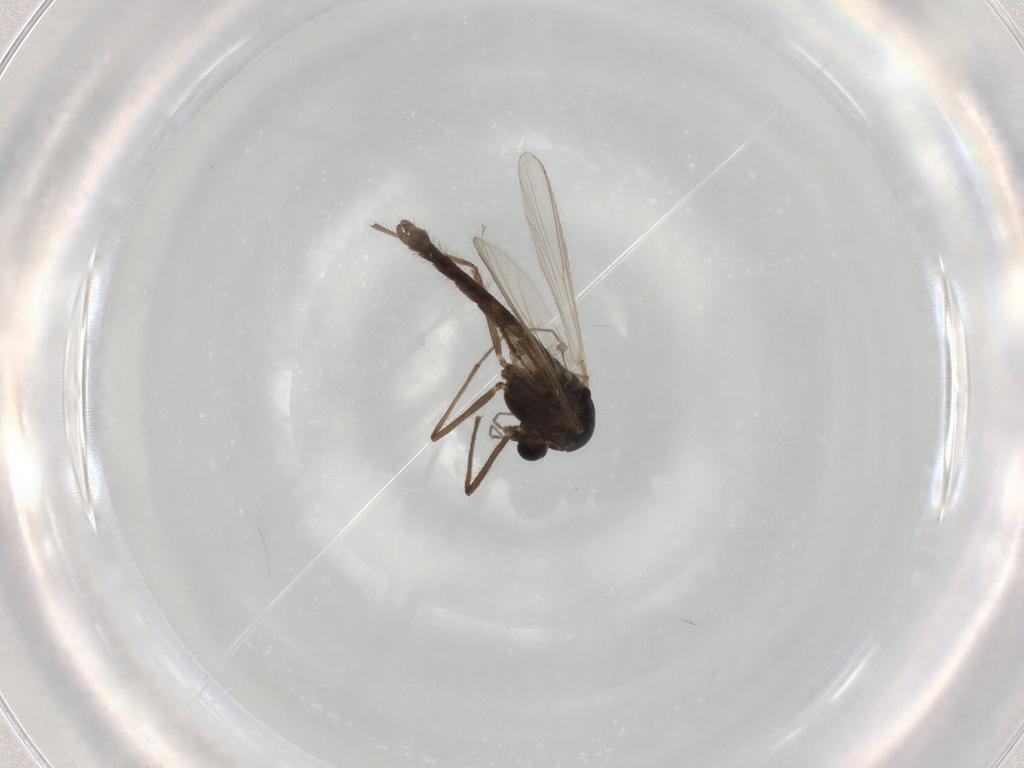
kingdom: Animalia
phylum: Arthropoda
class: Insecta
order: Diptera
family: Chironomidae
